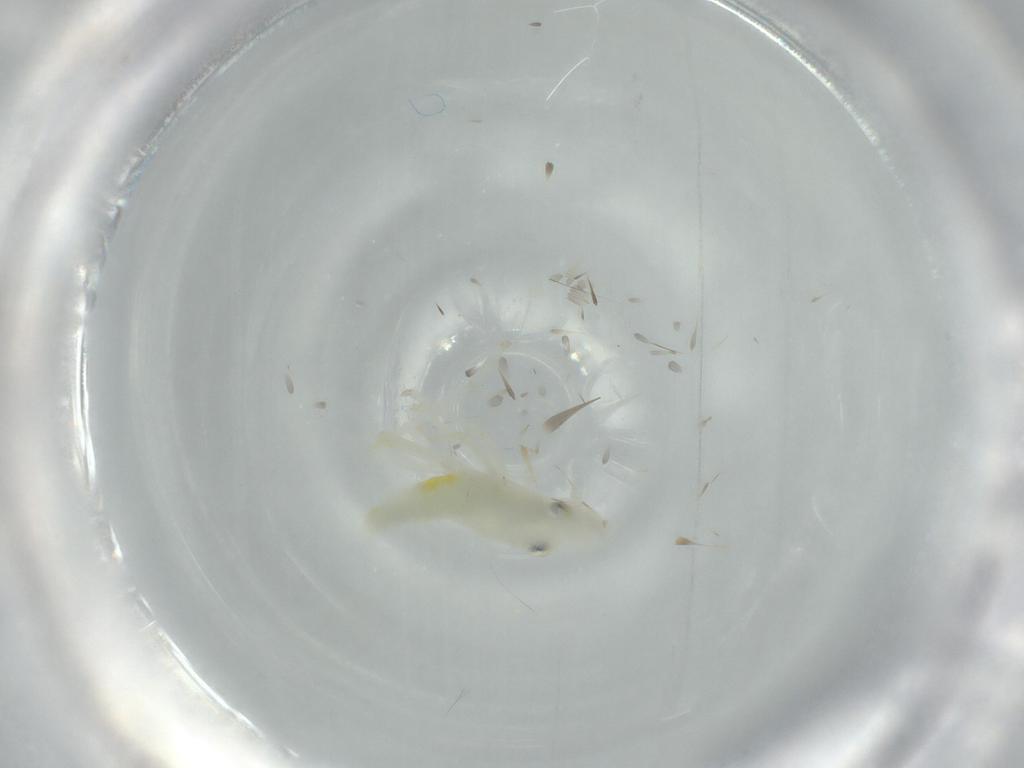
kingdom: Animalia
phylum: Arthropoda
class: Insecta
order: Hemiptera
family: Cicadellidae
